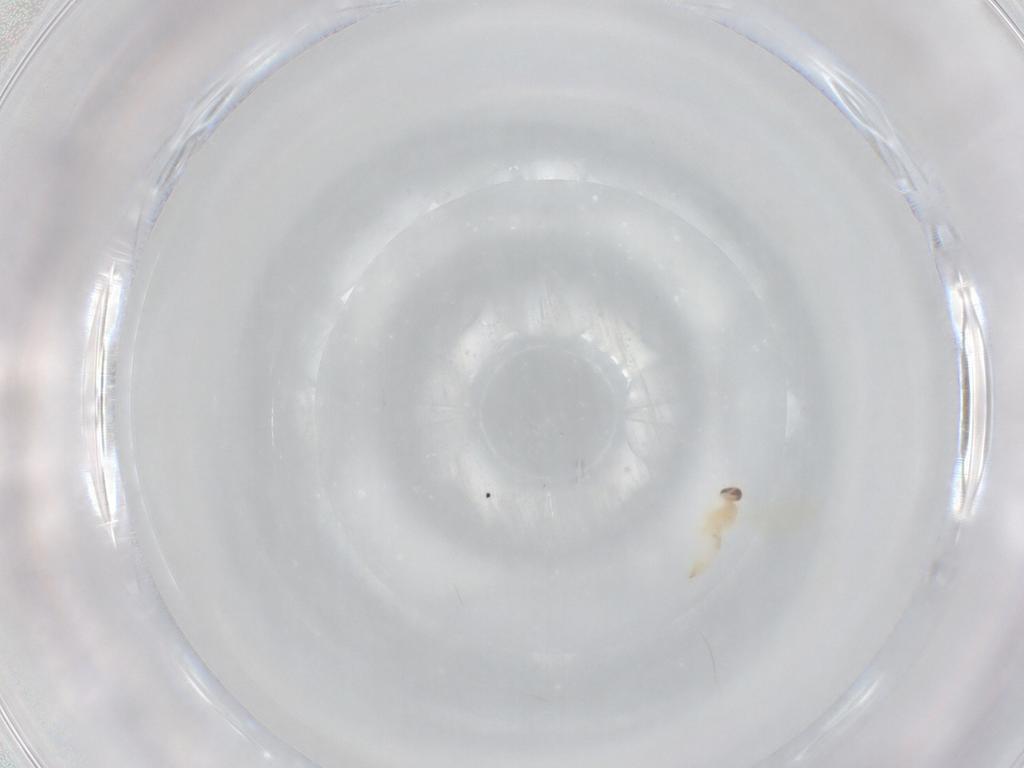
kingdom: Animalia
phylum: Arthropoda
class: Insecta
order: Diptera
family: Cecidomyiidae
